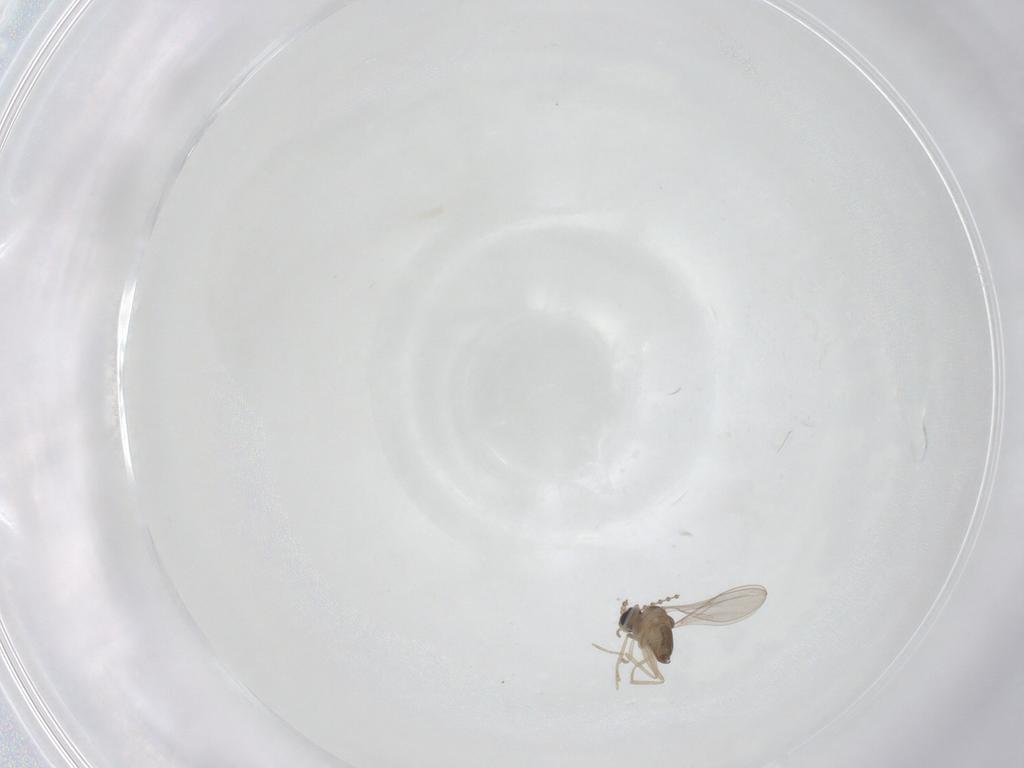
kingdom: Animalia
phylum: Arthropoda
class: Insecta
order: Diptera
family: Cecidomyiidae
